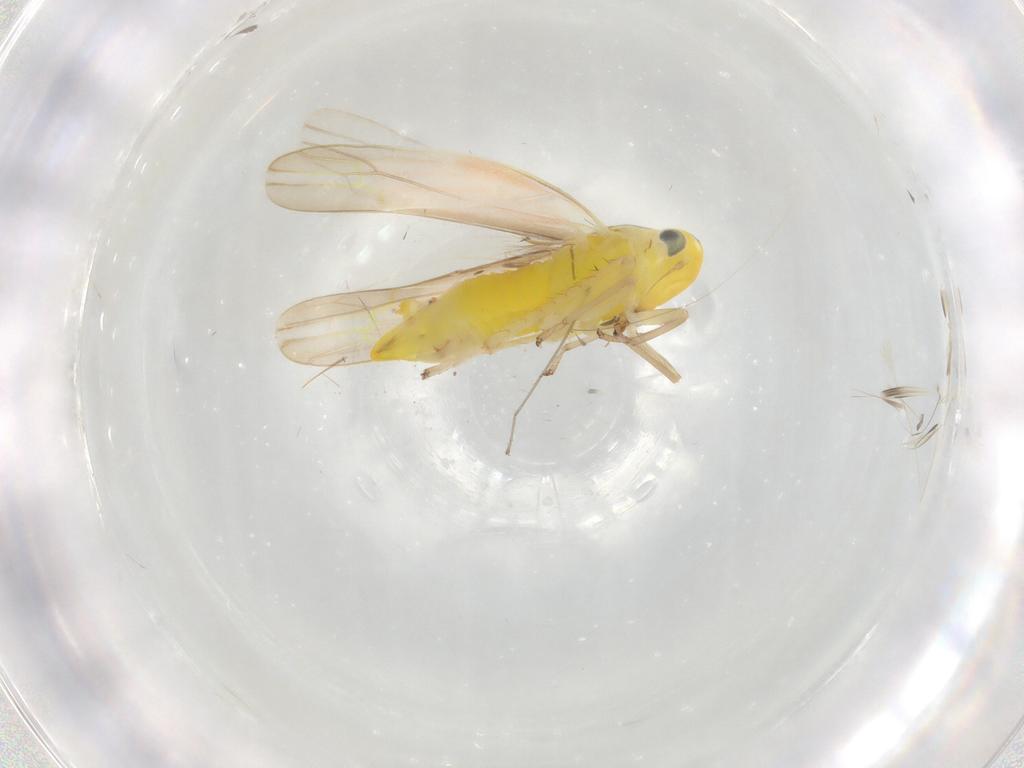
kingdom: Animalia
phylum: Arthropoda
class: Insecta
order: Hemiptera
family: Cicadellidae
